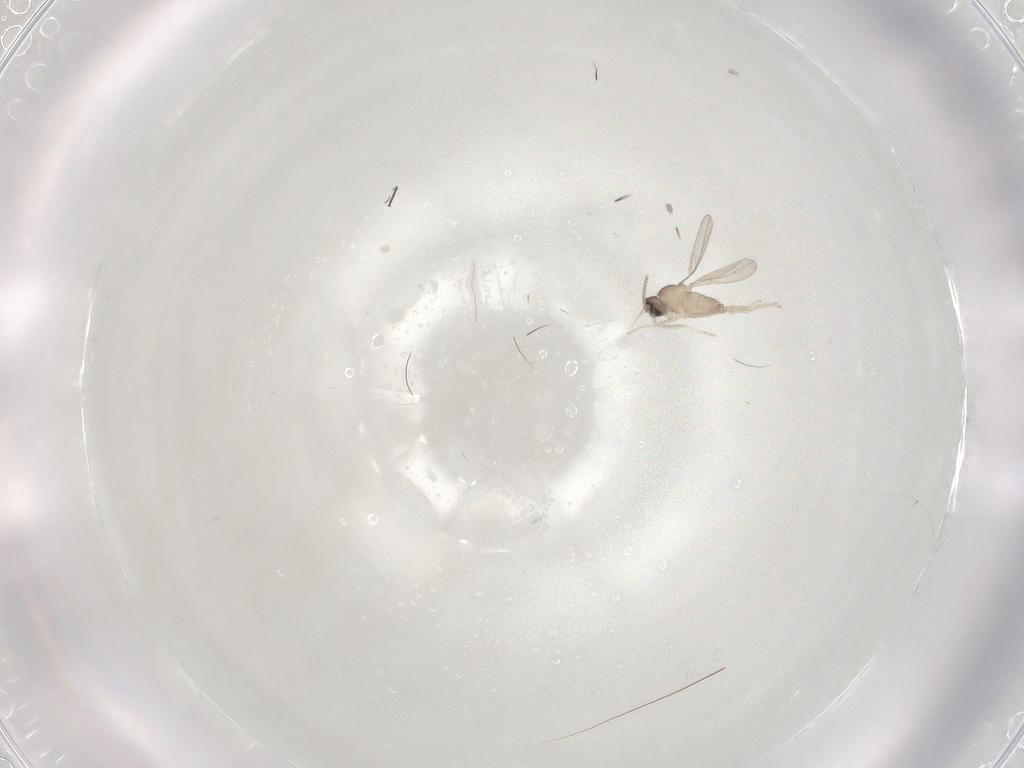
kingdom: Animalia
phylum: Arthropoda
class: Insecta
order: Diptera
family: Cecidomyiidae
